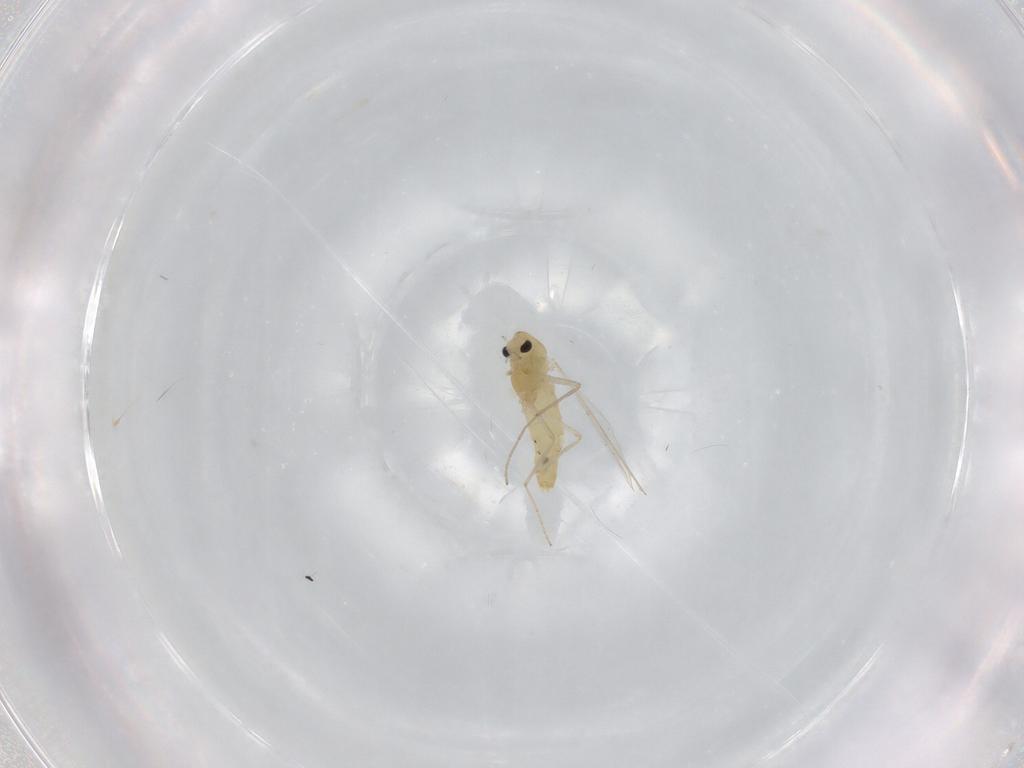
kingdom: Animalia
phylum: Arthropoda
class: Insecta
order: Diptera
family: Chironomidae
